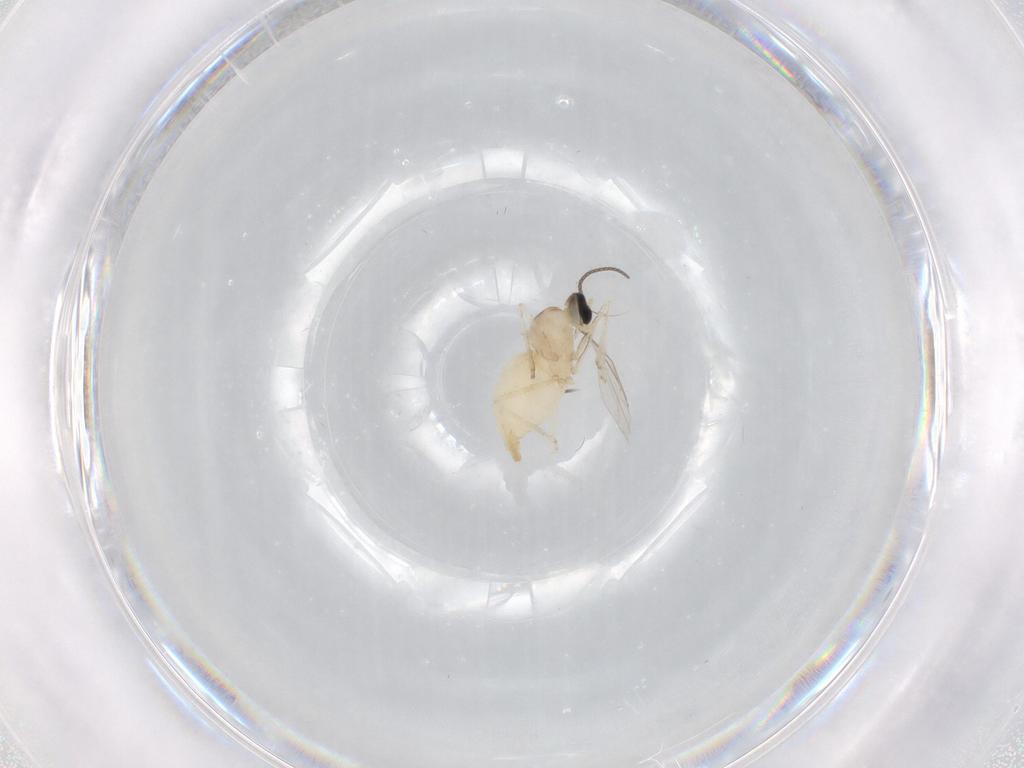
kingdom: Animalia
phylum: Arthropoda
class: Insecta
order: Diptera
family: Cecidomyiidae
